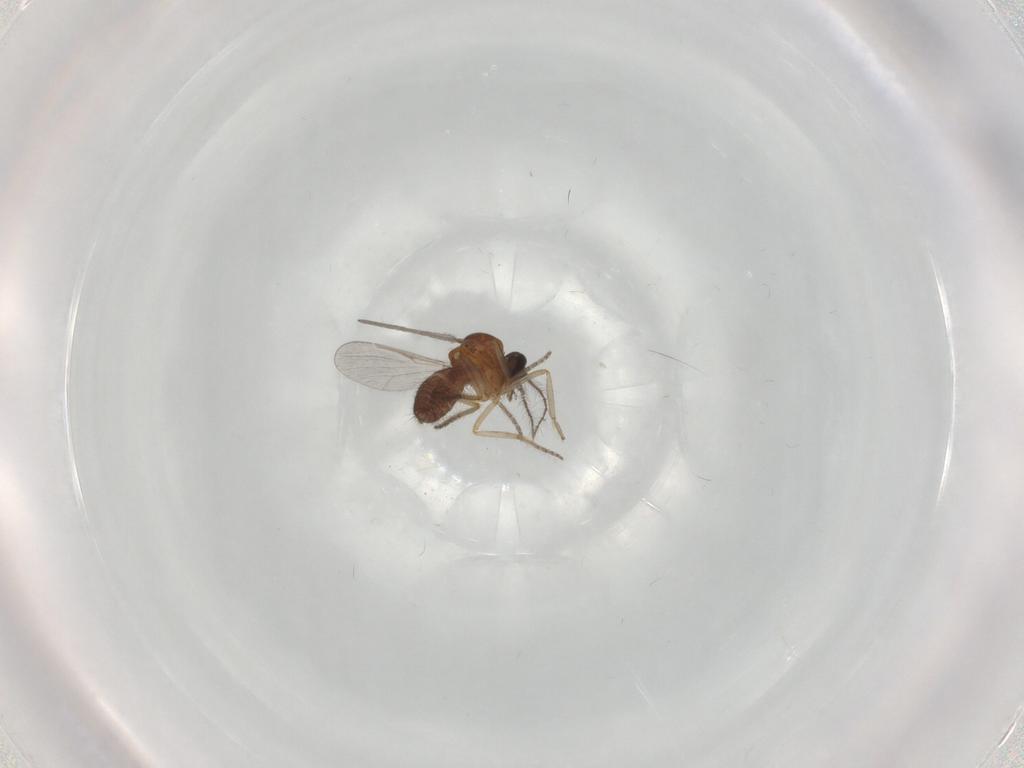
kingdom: Animalia
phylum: Arthropoda
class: Insecta
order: Diptera
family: Ceratopogonidae
